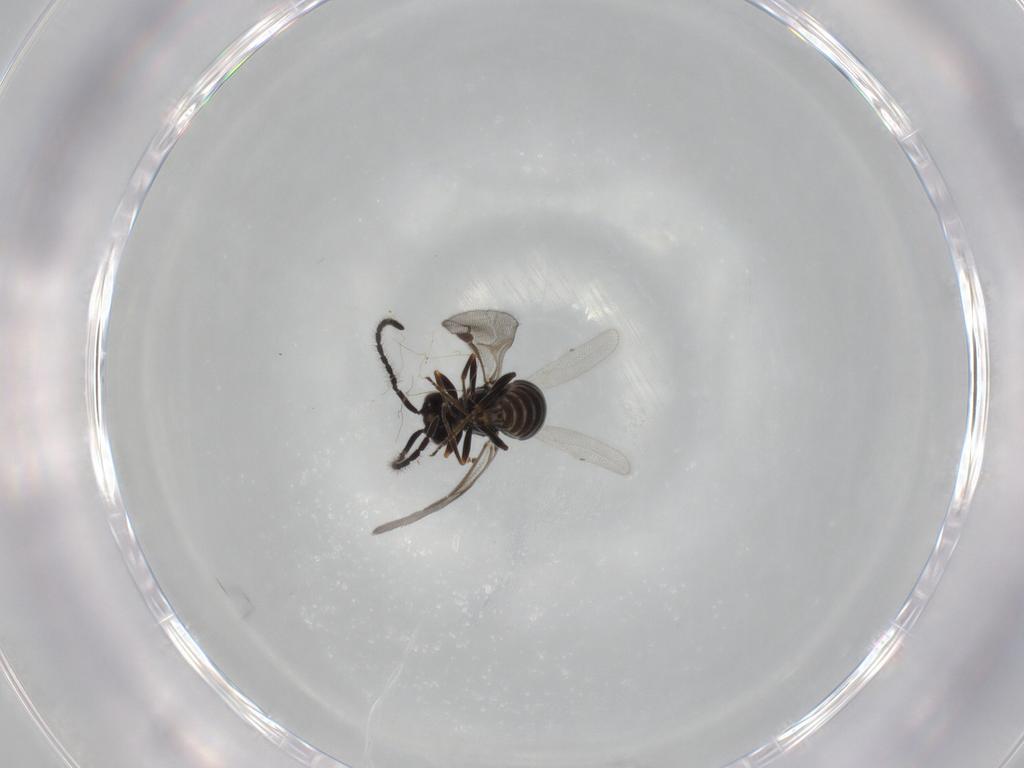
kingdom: Animalia
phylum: Arthropoda
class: Insecta
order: Hymenoptera
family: Megaspilidae
